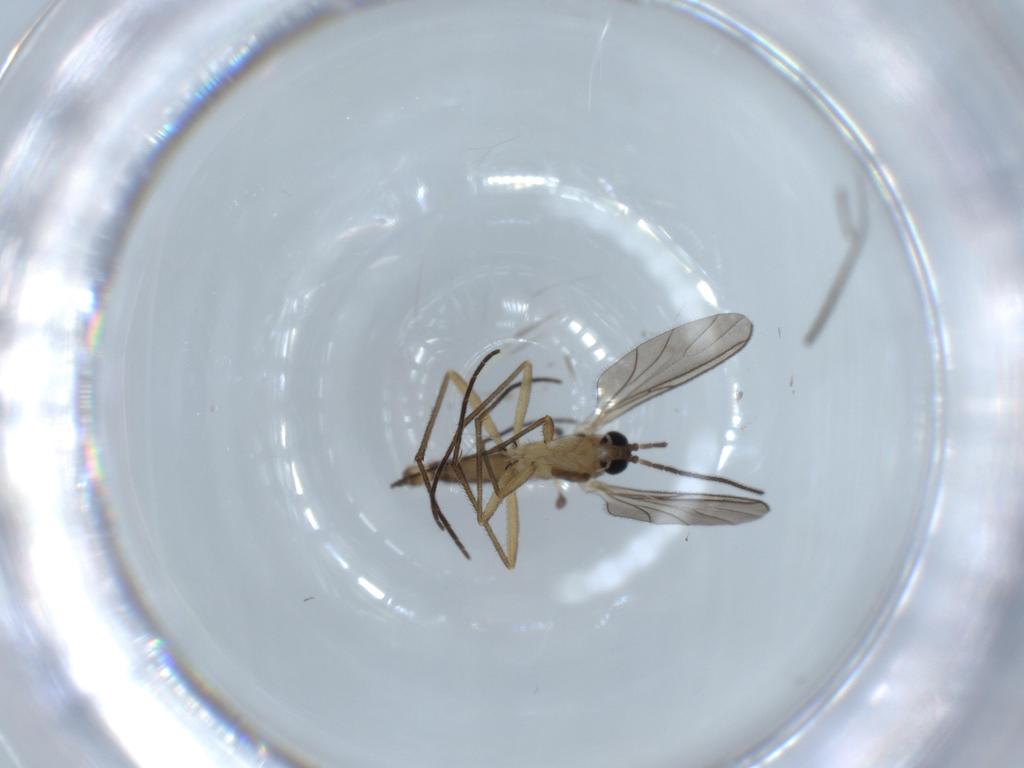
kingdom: Animalia
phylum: Arthropoda
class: Insecta
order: Diptera
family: Sciaridae
